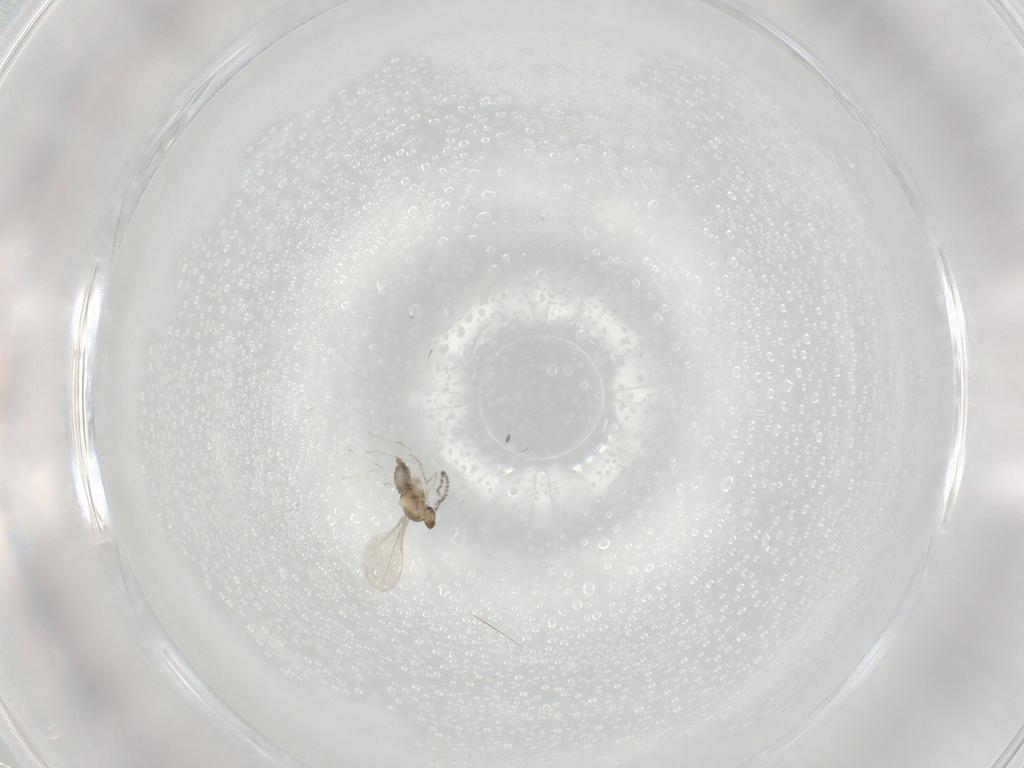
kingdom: Animalia
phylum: Arthropoda
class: Insecta
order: Diptera
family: Cecidomyiidae
